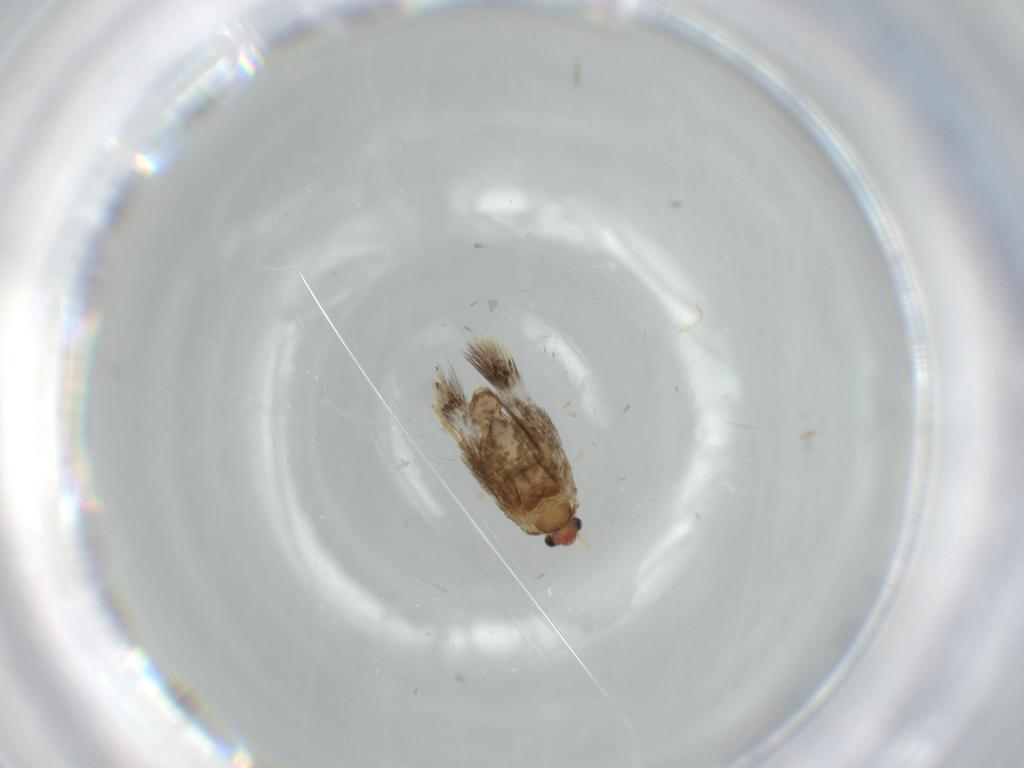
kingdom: Animalia
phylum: Arthropoda
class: Insecta
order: Lepidoptera
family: Nepticulidae
